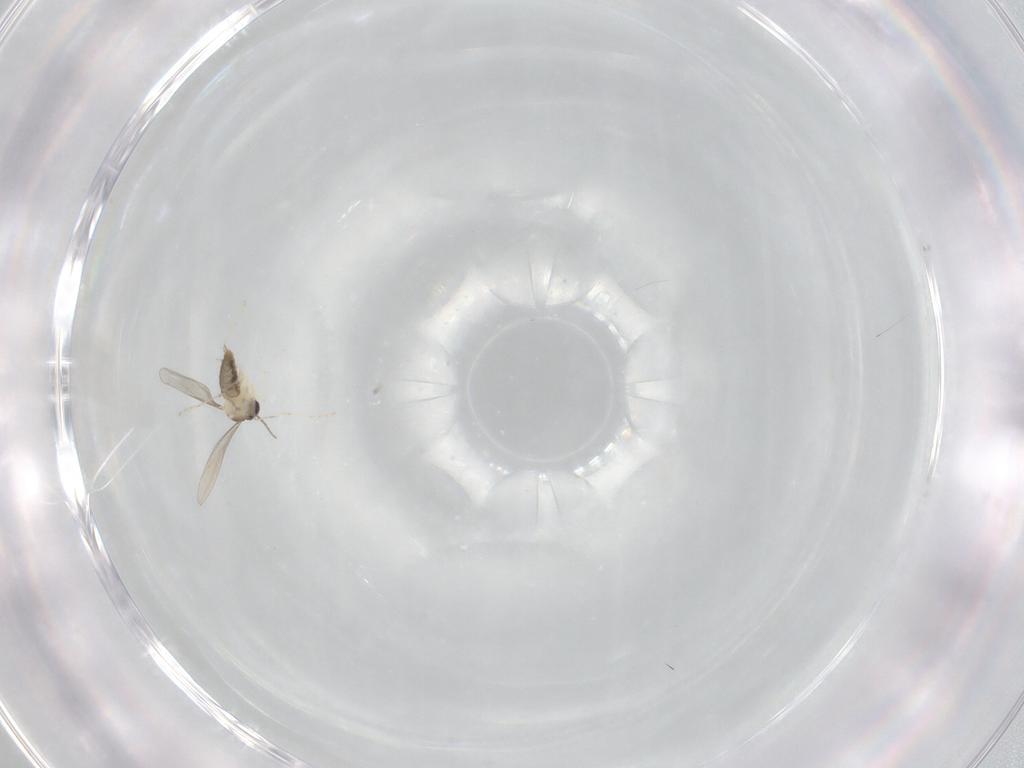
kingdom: Animalia
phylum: Arthropoda
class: Insecta
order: Diptera
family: Cecidomyiidae
